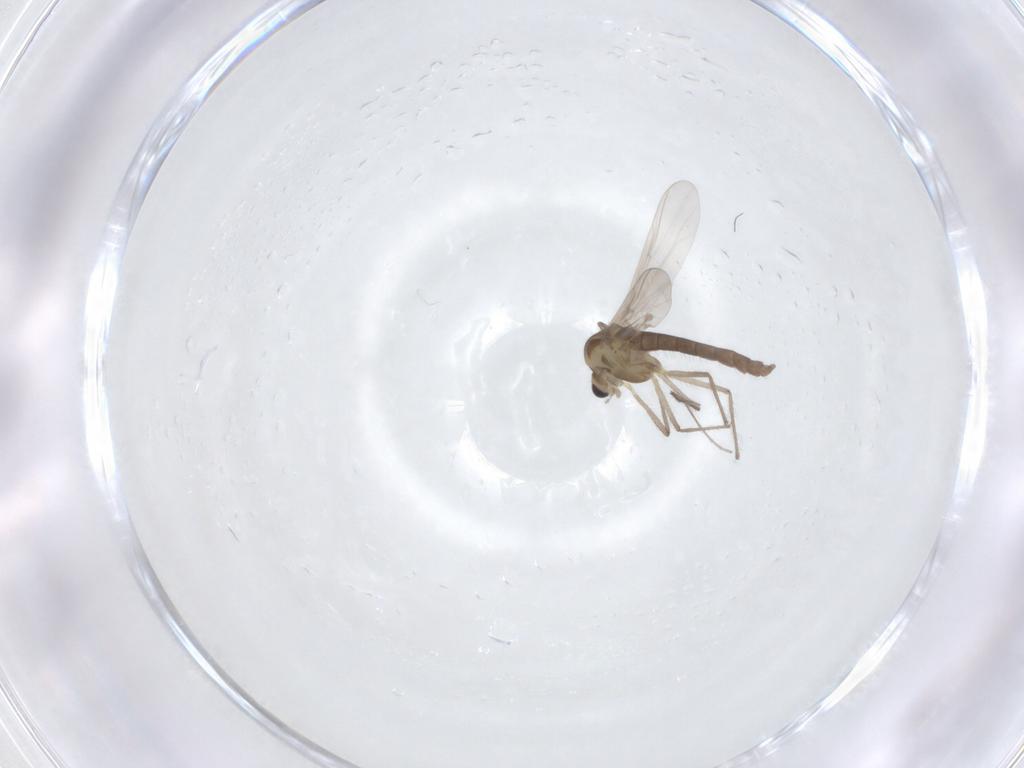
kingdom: Animalia
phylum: Arthropoda
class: Insecta
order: Diptera
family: Chironomidae
